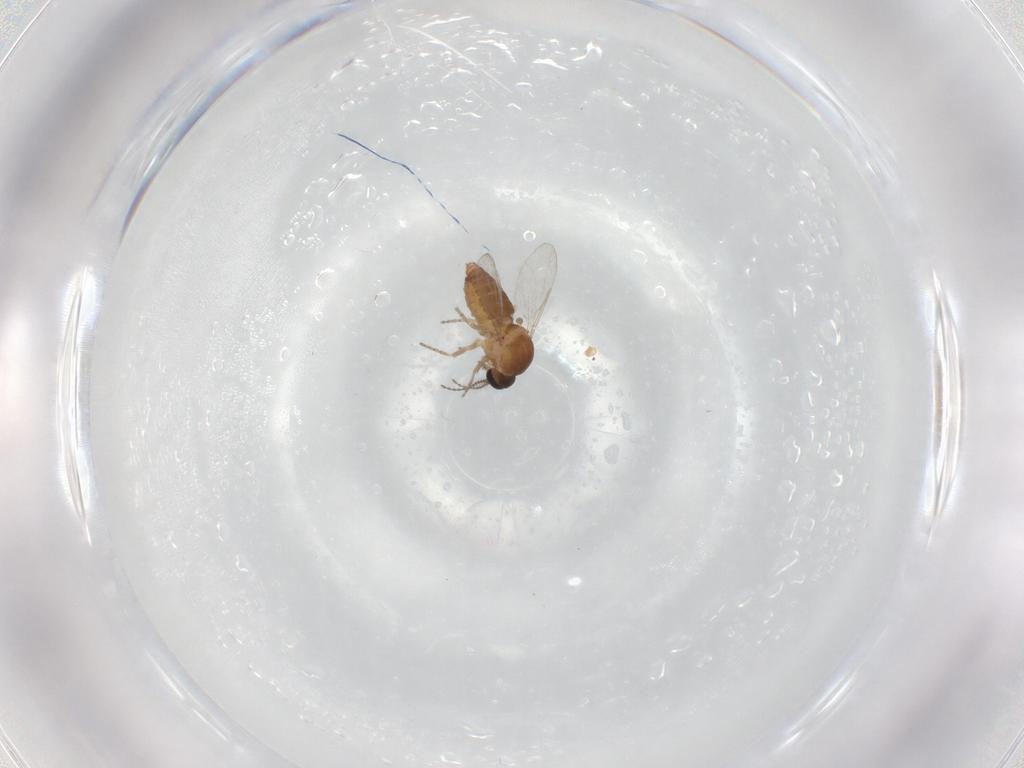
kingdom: Animalia
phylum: Arthropoda
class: Insecta
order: Diptera
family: Ceratopogonidae
